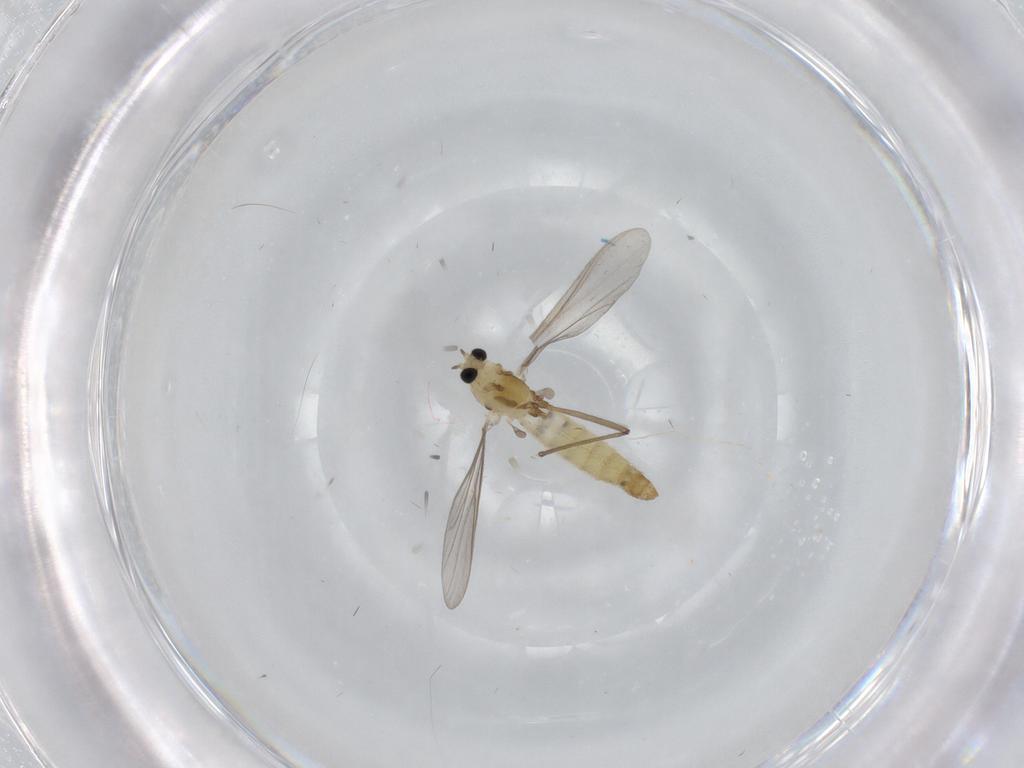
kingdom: Animalia
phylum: Arthropoda
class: Insecta
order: Diptera
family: Chironomidae
